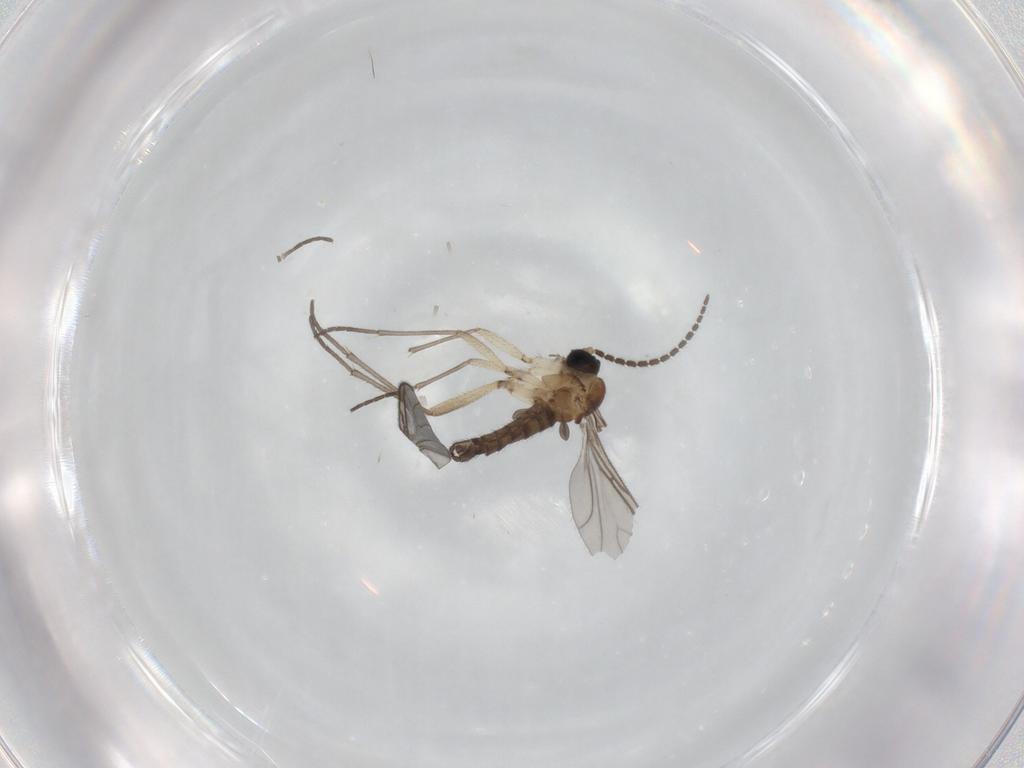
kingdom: Animalia
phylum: Arthropoda
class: Insecta
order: Diptera
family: Sciaridae
